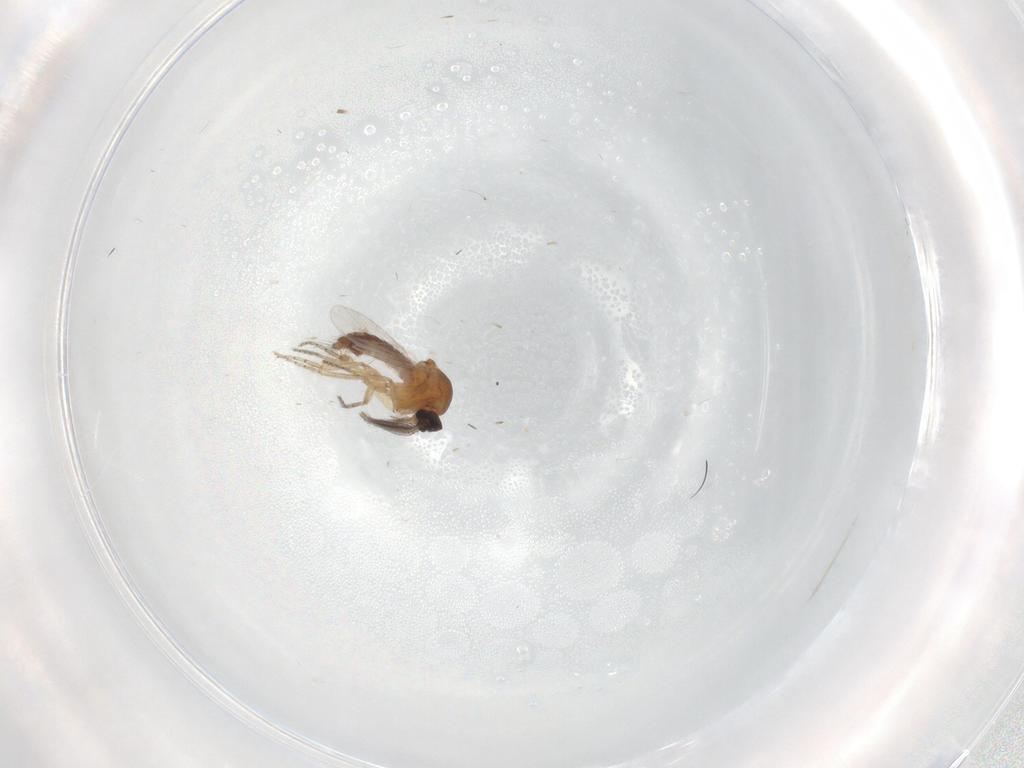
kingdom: Animalia
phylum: Arthropoda
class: Insecta
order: Diptera
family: Ceratopogonidae
